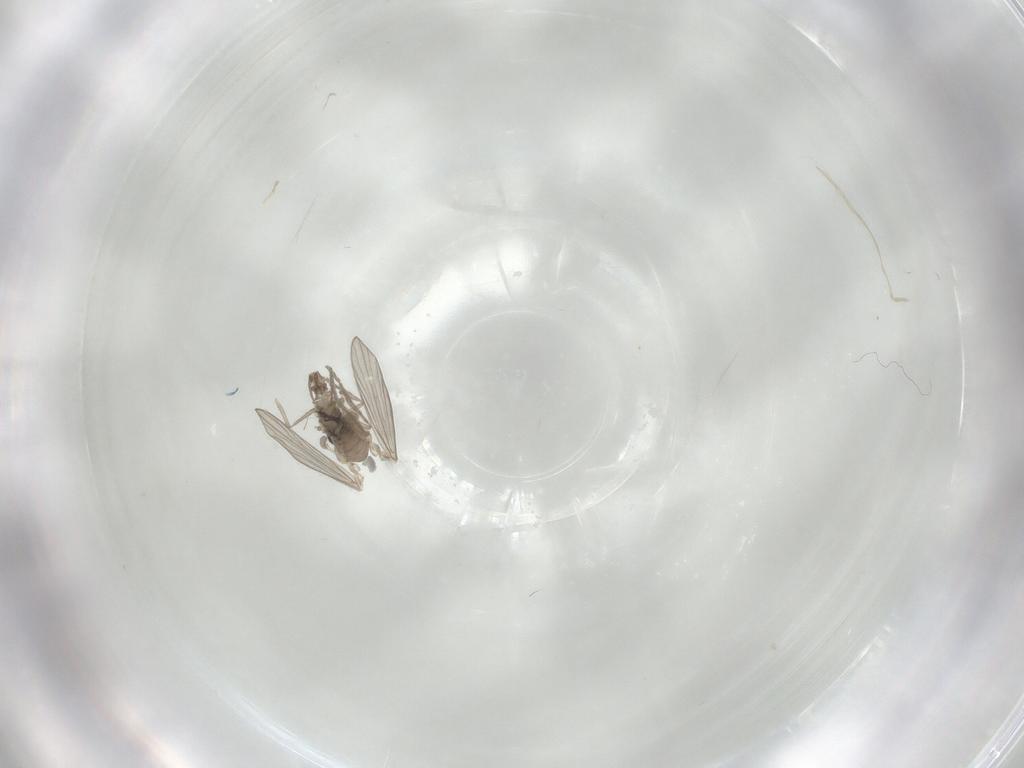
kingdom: Animalia
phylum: Arthropoda
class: Insecta
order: Diptera
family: Psychodidae
